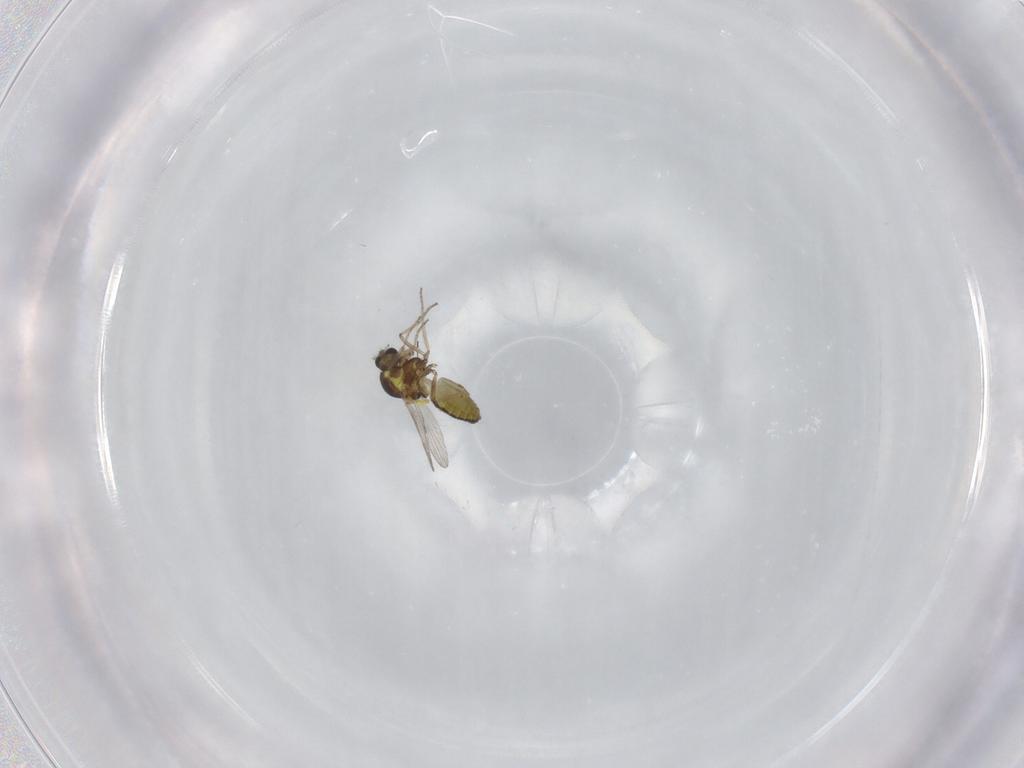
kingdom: Animalia
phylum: Arthropoda
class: Insecta
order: Diptera
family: Ceratopogonidae
